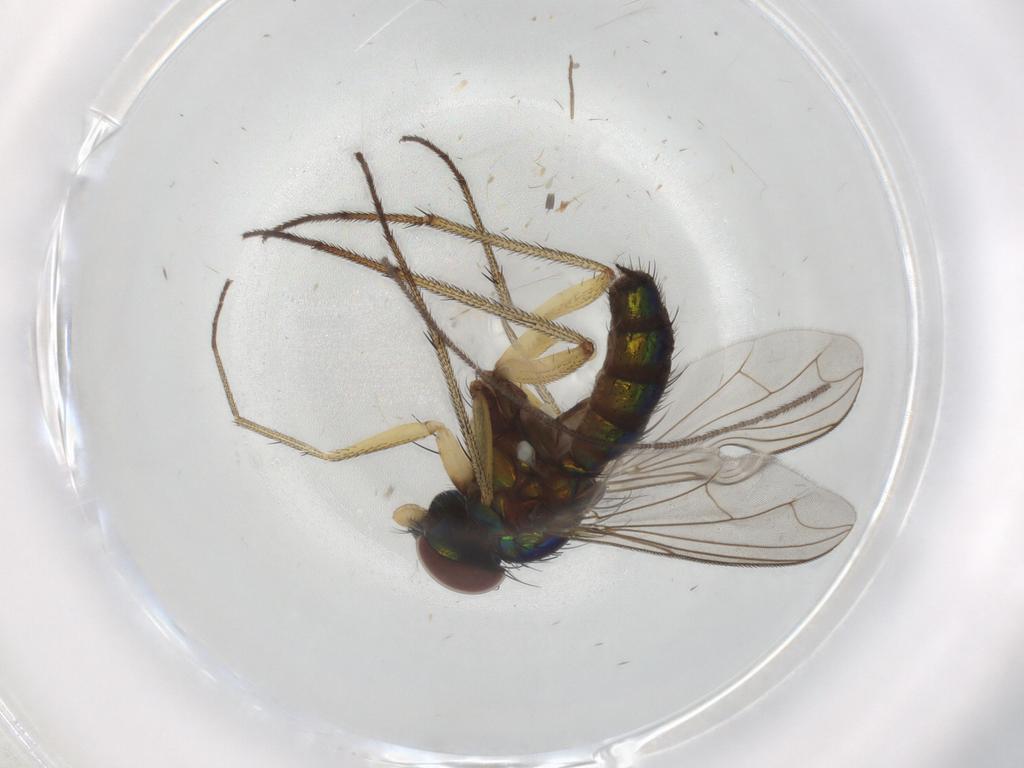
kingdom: Animalia
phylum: Arthropoda
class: Insecta
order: Diptera
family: Dolichopodidae
